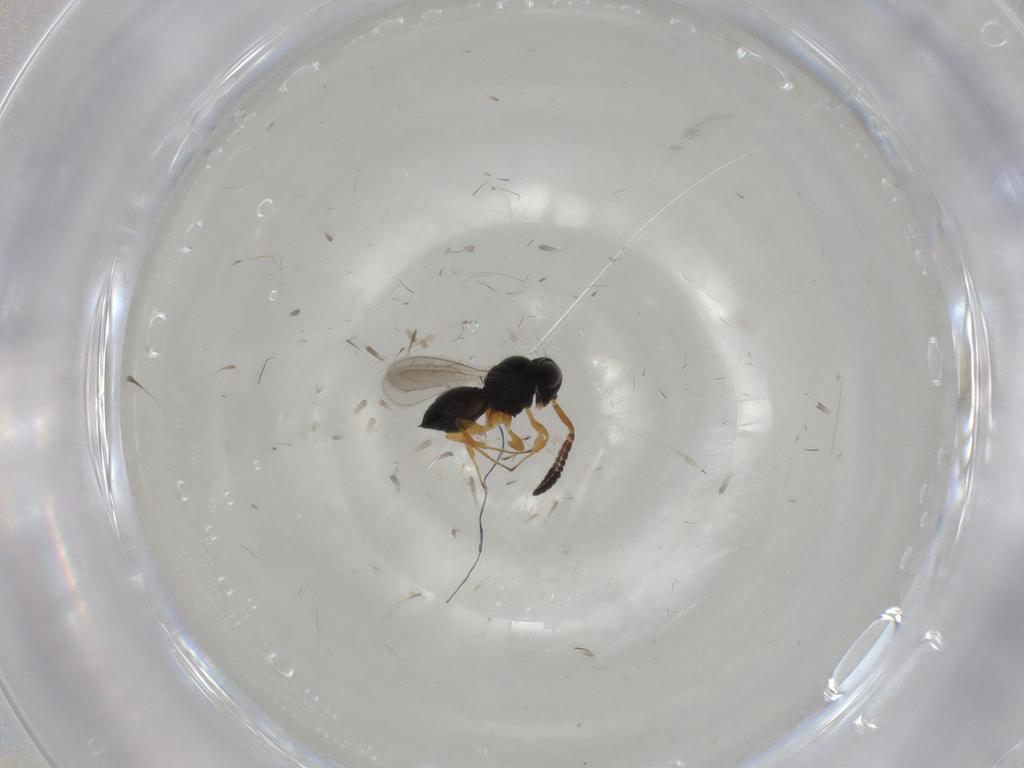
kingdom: Animalia
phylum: Arthropoda
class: Insecta
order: Hymenoptera
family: Scelionidae
